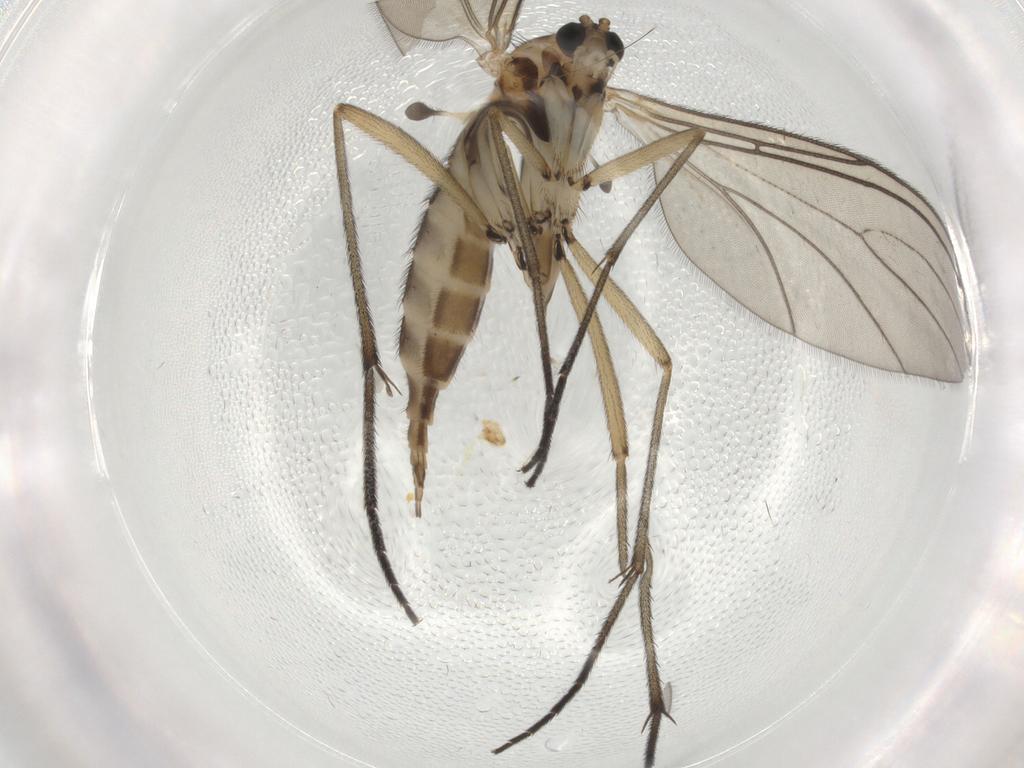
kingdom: Animalia
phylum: Arthropoda
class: Insecta
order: Diptera
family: Sciaridae
